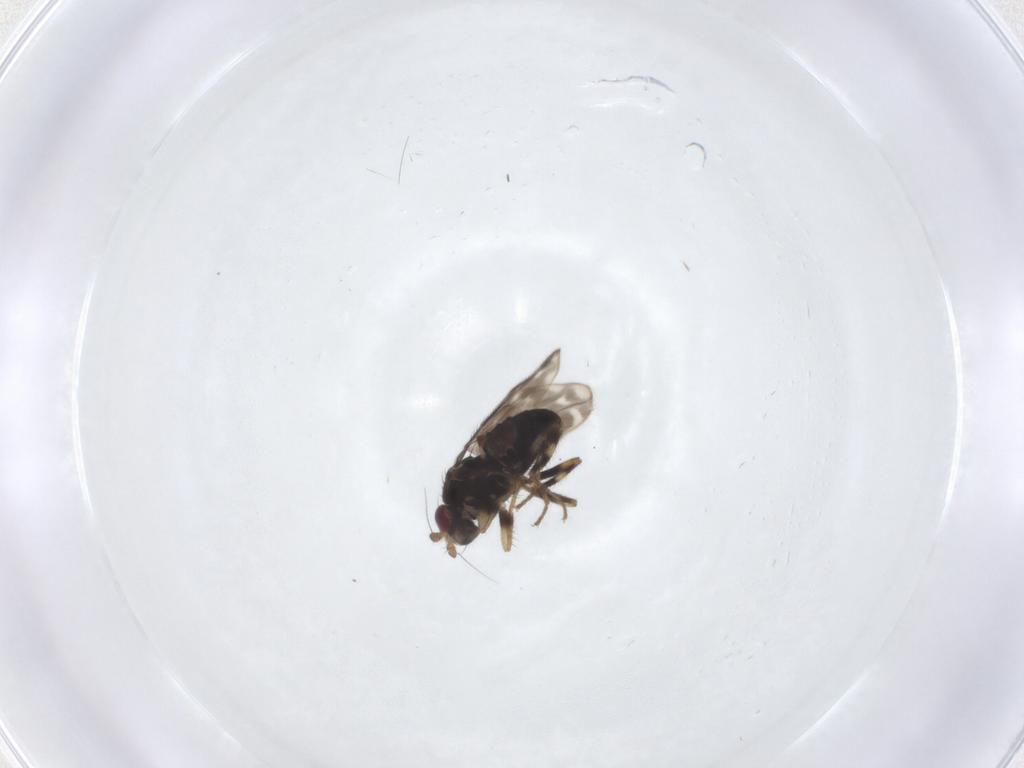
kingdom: Animalia
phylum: Arthropoda
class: Insecta
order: Diptera
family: Sphaeroceridae
